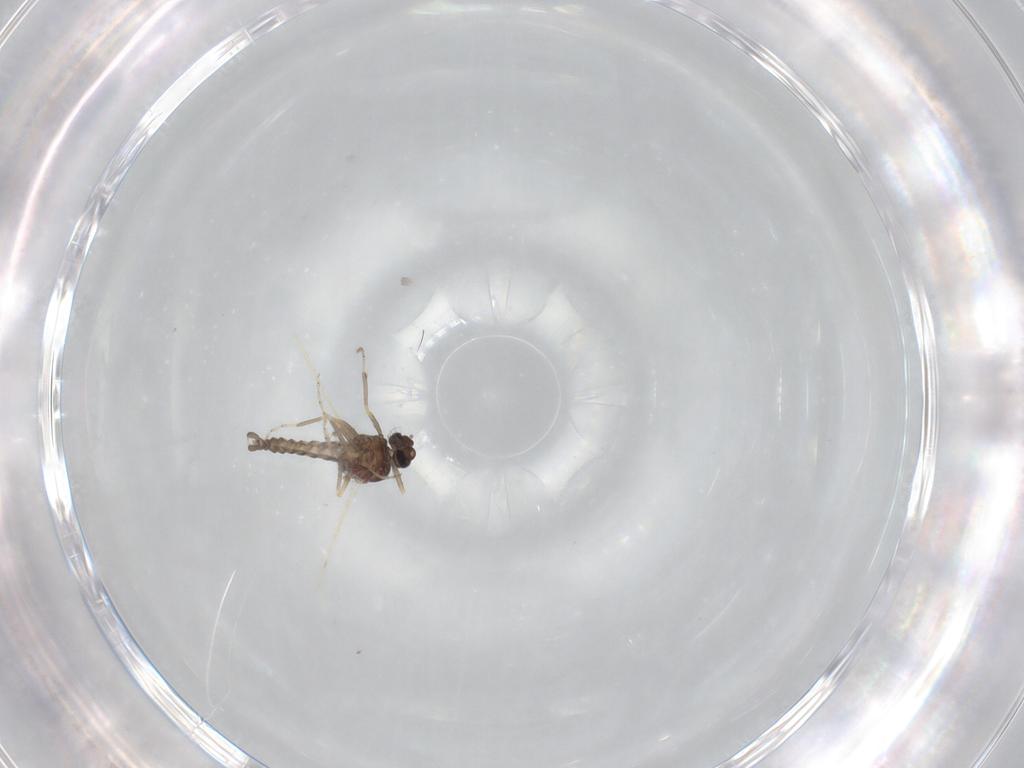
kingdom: Animalia
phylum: Arthropoda
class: Insecta
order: Diptera
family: Ceratopogonidae
